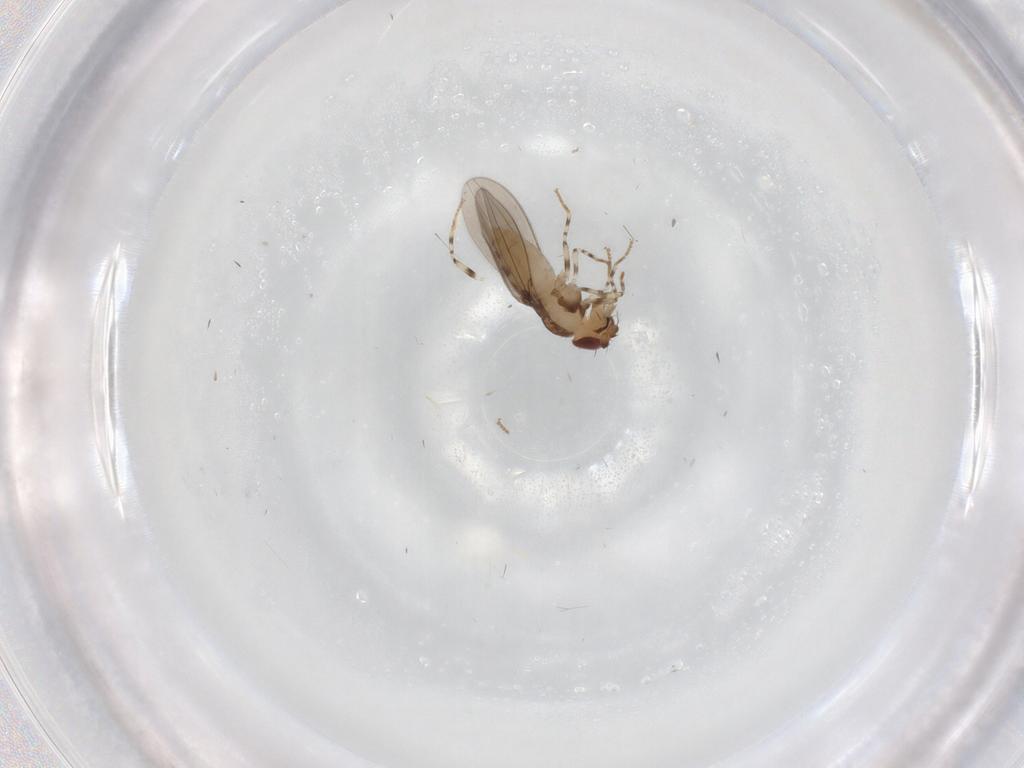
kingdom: Animalia
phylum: Arthropoda
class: Insecta
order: Diptera
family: Asteiidae
